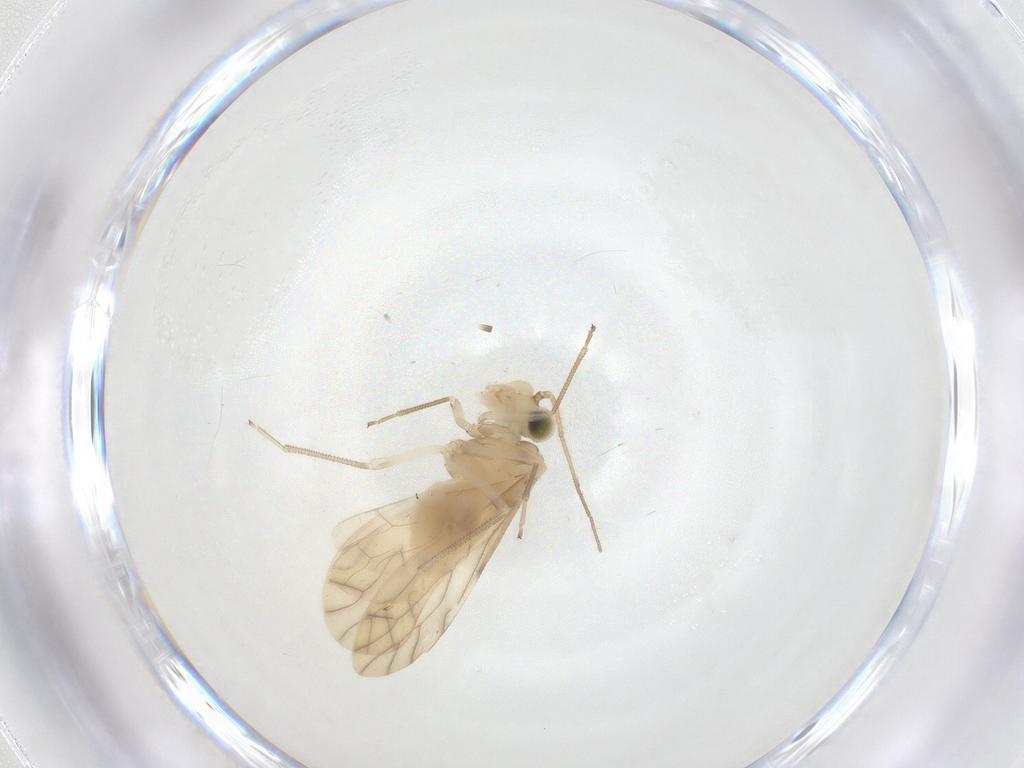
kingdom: Animalia
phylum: Arthropoda
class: Insecta
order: Psocodea
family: Caeciliusidae
